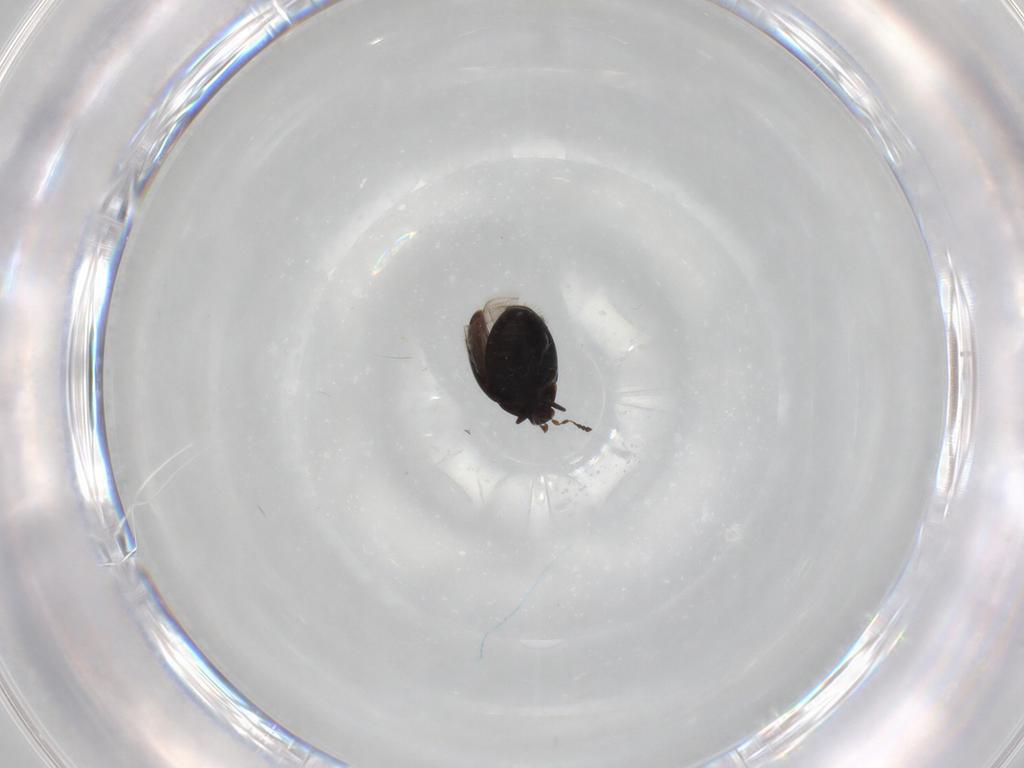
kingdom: Animalia
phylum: Arthropoda
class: Insecta
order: Coleoptera
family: Corylophidae
